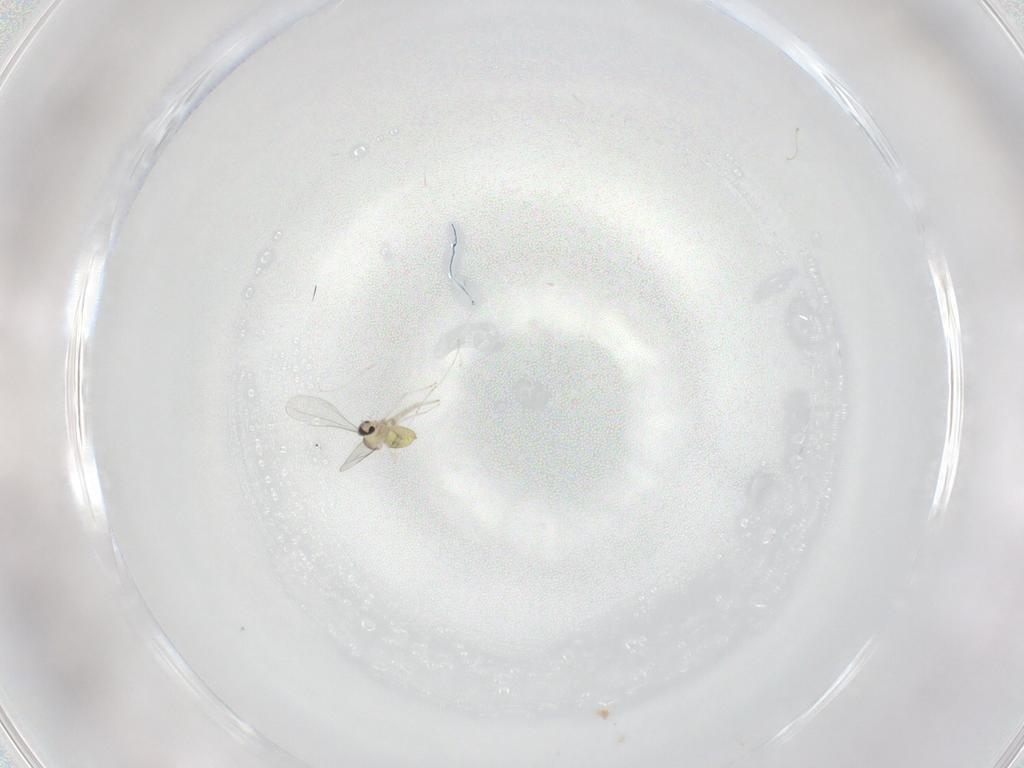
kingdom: Animalia
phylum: Arthropoda
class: Insecta
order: Diptera
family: Cecidomyiidae
